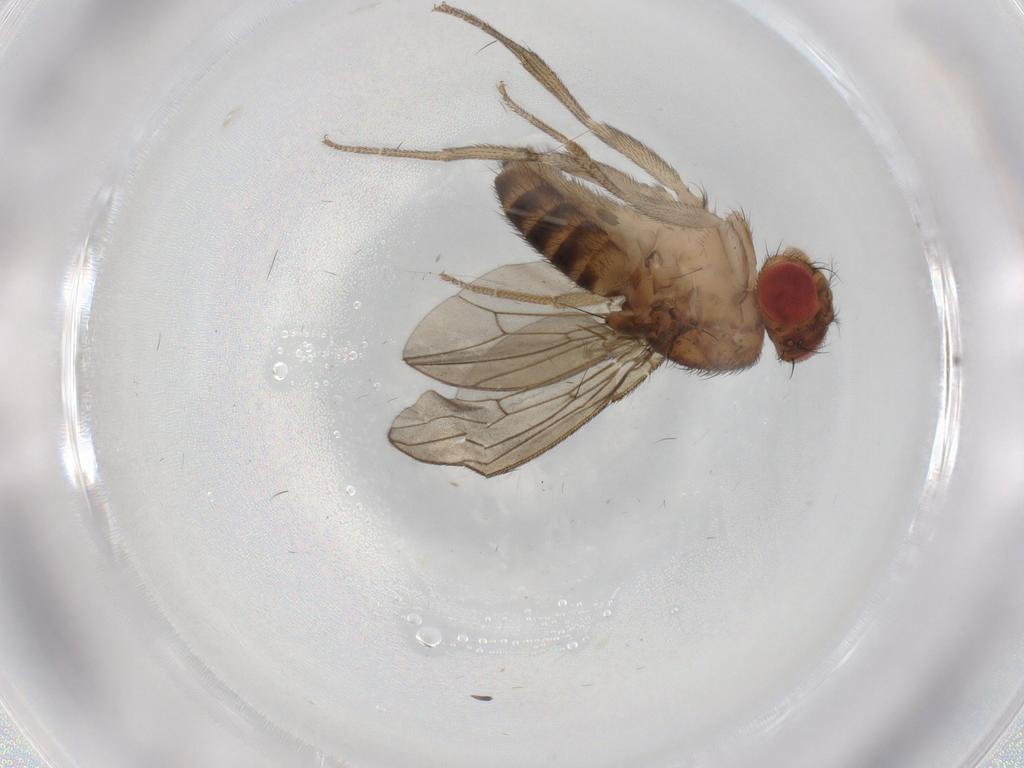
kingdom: Animalia
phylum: Arthropoda
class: Insecta
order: Diptera
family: Drosophilidae
